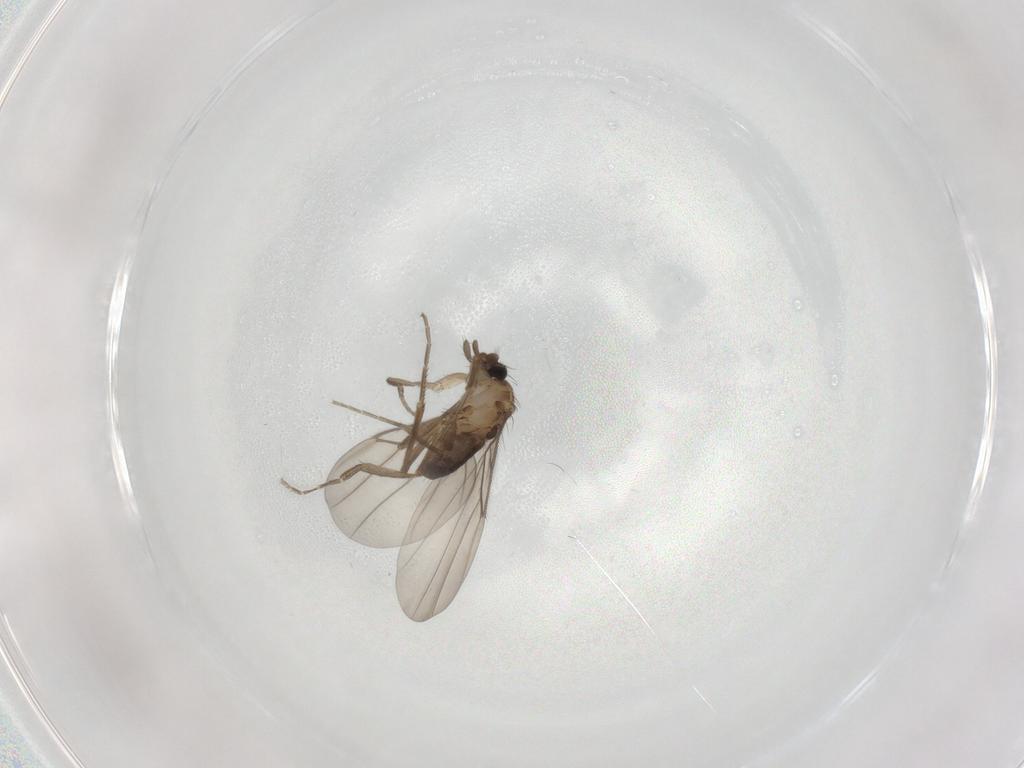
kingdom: Animalia
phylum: Arthropoda
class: Insecta
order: Diptera
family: Phoridae
